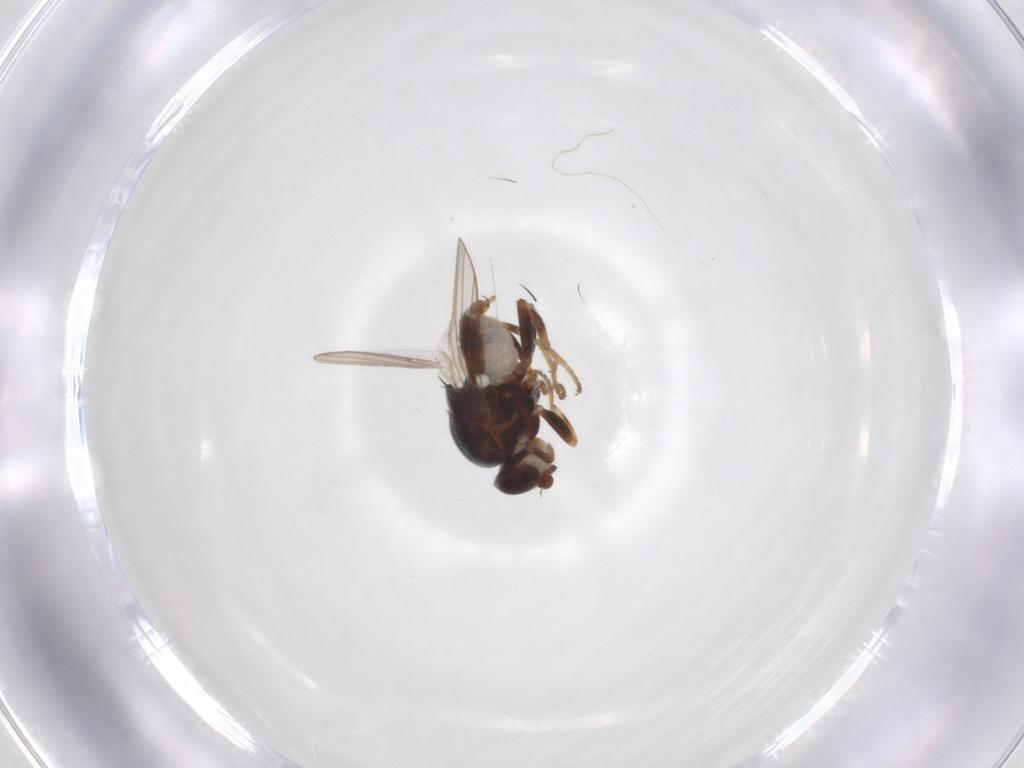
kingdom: Animalia
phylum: Arthropoda
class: Insecta
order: Diptera
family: Chloropidae
